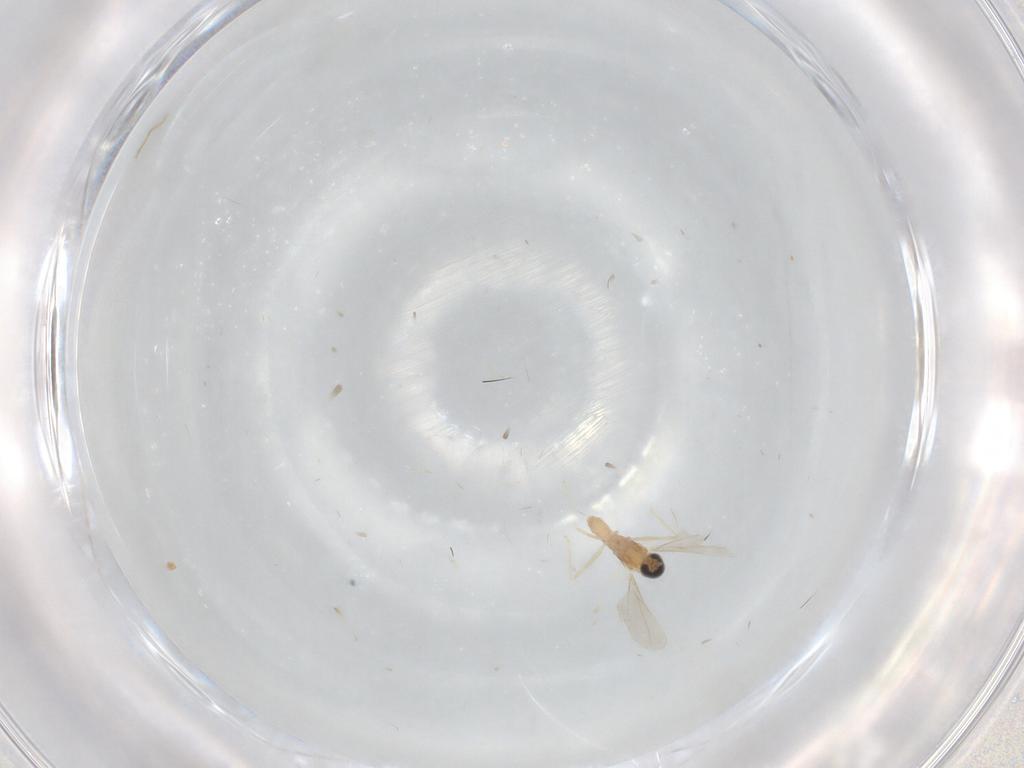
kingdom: Animalia
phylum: Arthropoda
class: Insecta
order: Diptera
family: Cecidomyiidae
